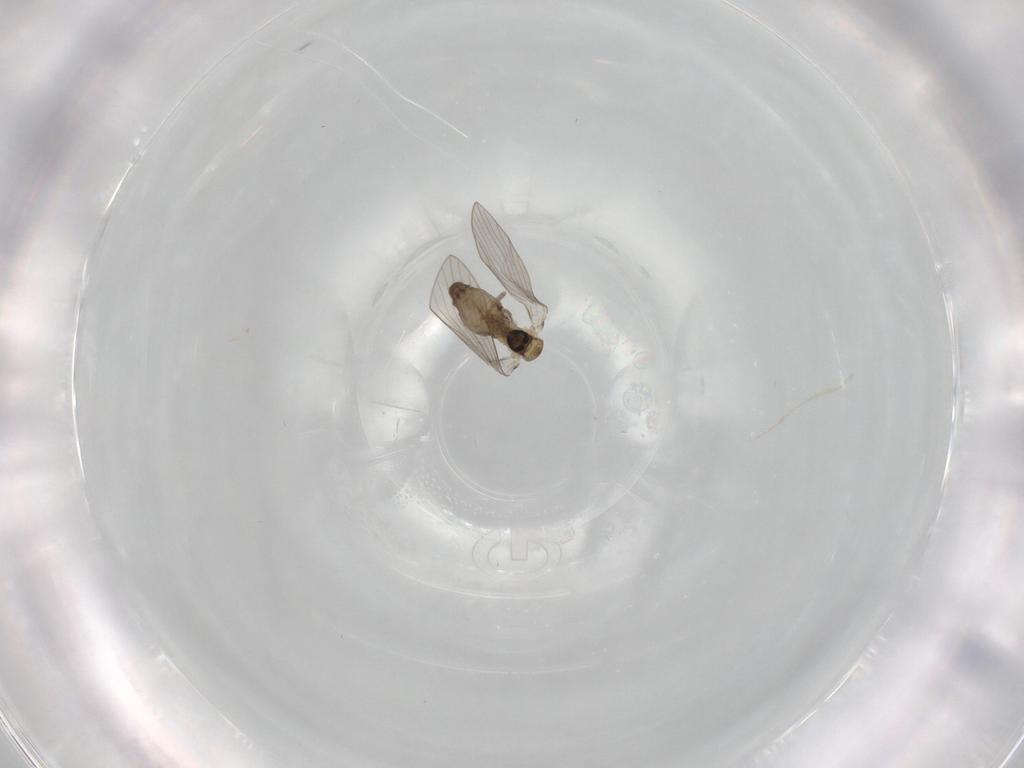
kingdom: Animalia
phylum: Arthropoda
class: Insecta
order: Diptera
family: Psychodidae
